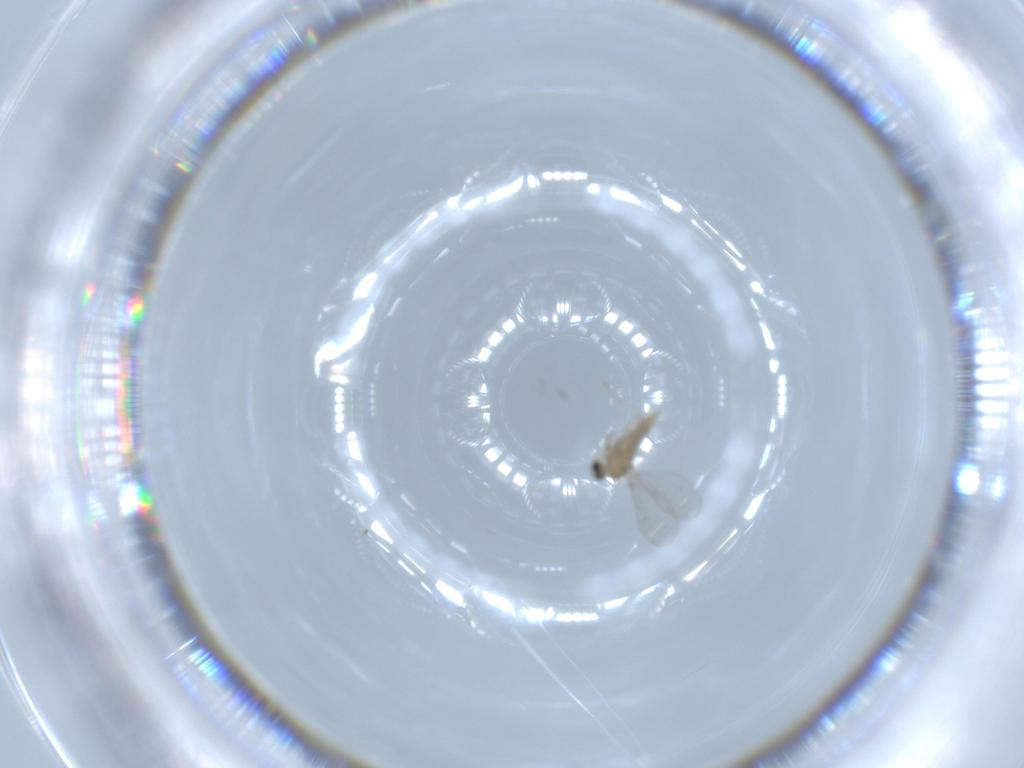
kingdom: Animalia
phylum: Arthropoda
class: Insecta
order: Diptera
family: Cecidomyiidae
